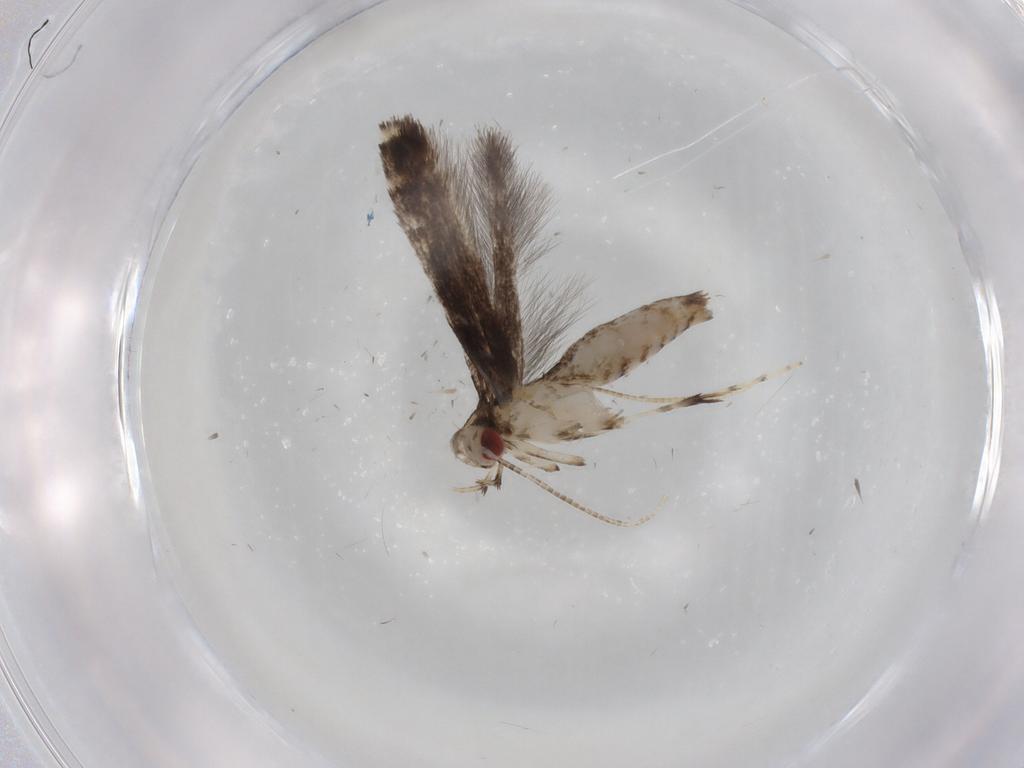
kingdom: Animalia
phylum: Arthropoda
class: Insecta
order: Lepidoptera
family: Gracillariidae
